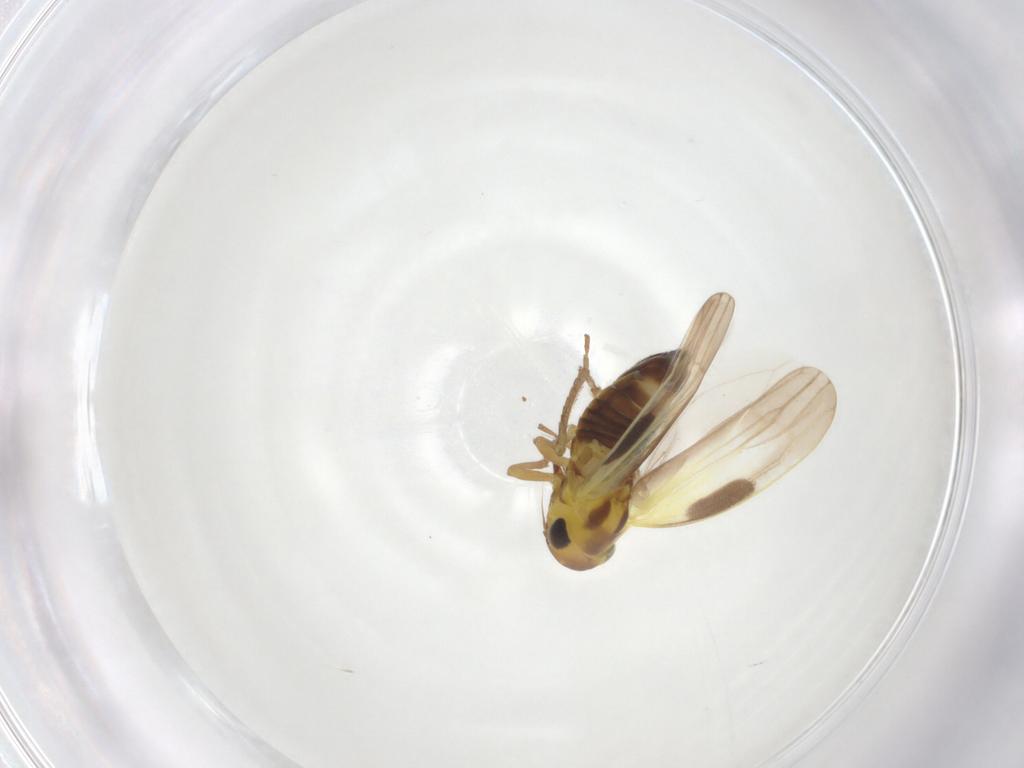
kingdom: Animalia
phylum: Arthropoda
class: Insecta
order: Hemiptera
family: Cicadellidae
